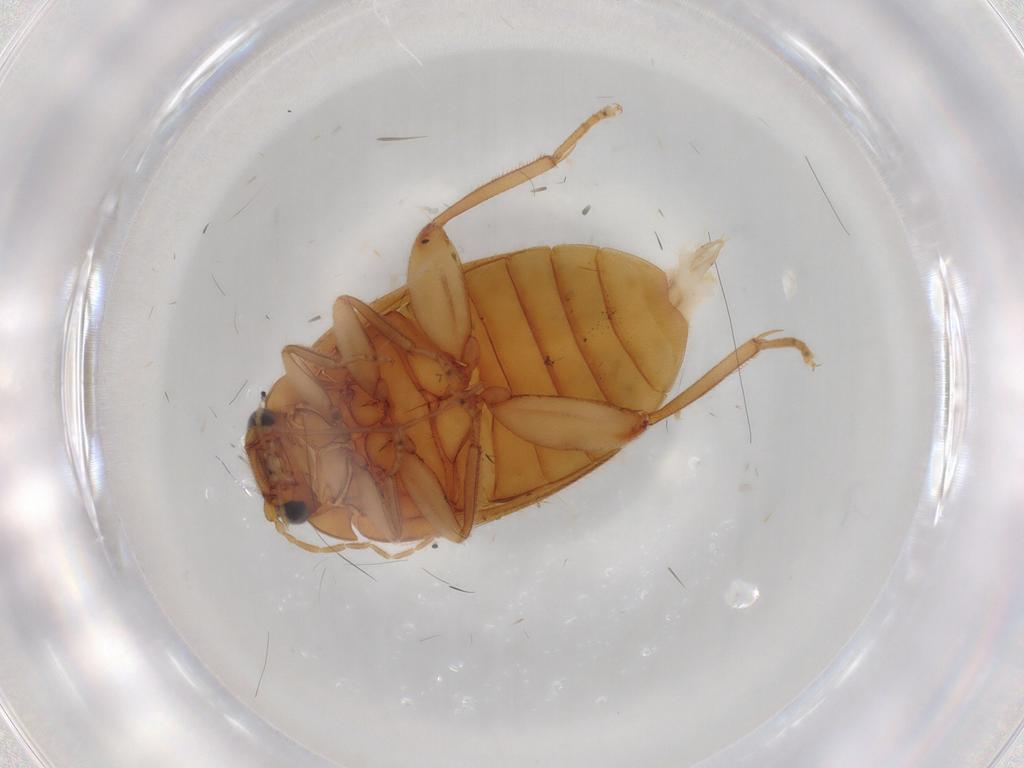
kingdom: Animalia
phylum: Arthropoda
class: Insecta
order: Coleoptera
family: Scirtidae
